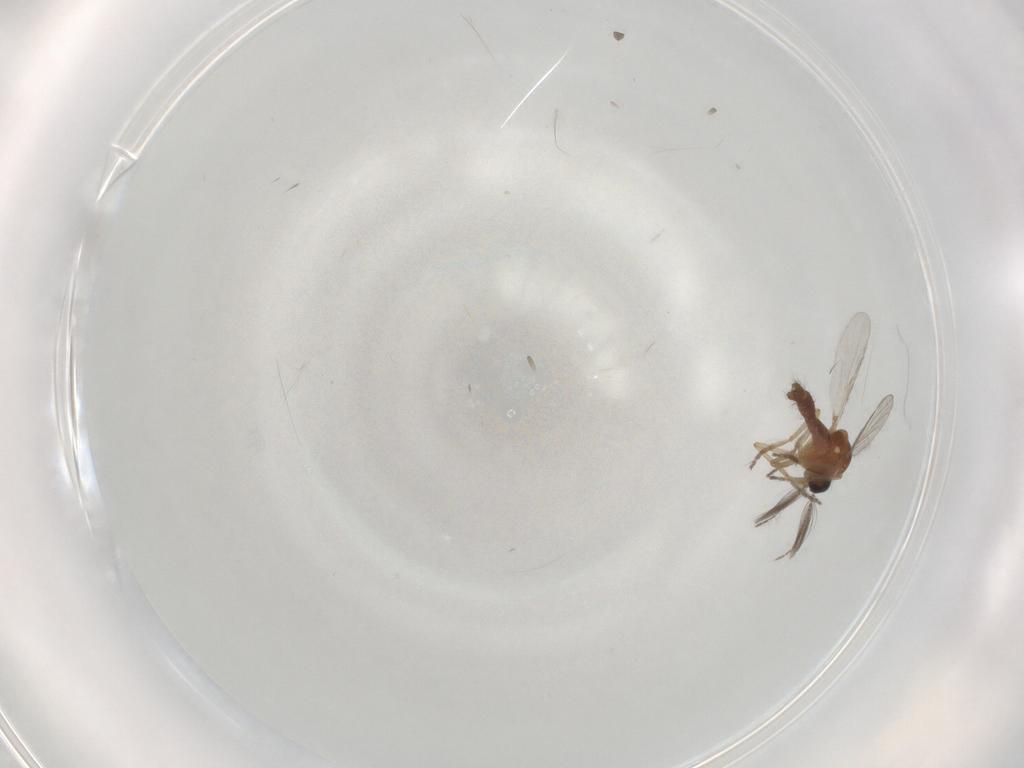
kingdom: Animalia
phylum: Arthropoda
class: Insecta
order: Diptera
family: Ceratopogonidae
